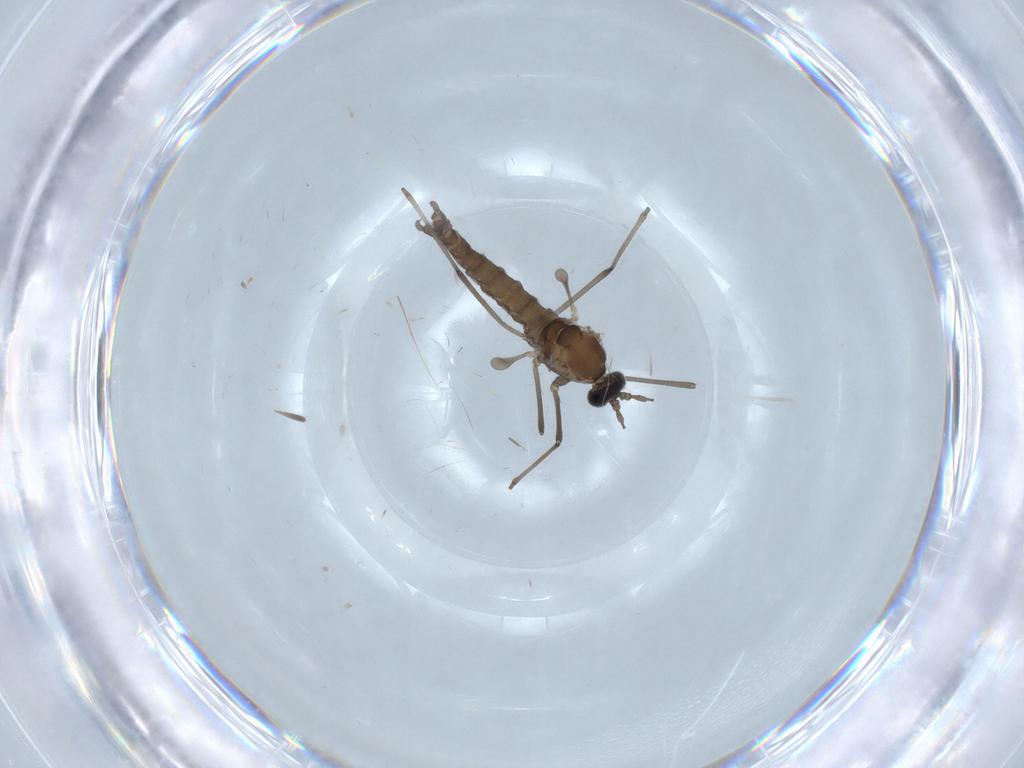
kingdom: Animalia
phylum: Arthropoda
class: Insecta
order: Diptera
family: Cecidomyiidae
